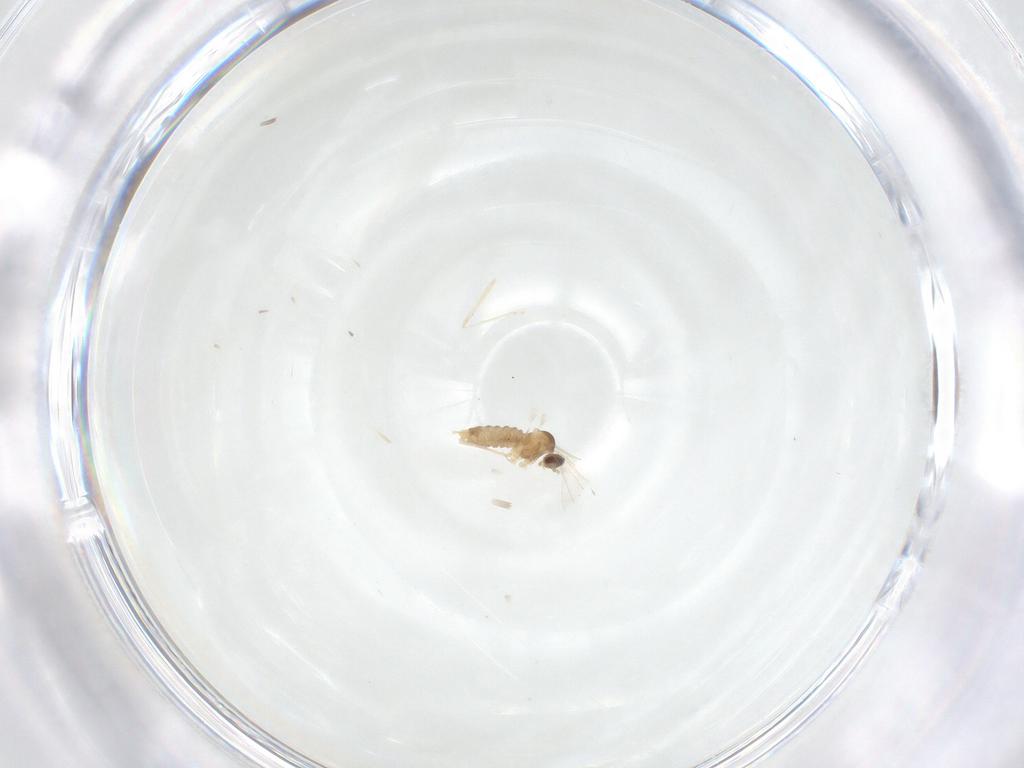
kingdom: Animalia
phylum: Arthropoda
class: Insecta
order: Diptera
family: Cecidomyiidae
